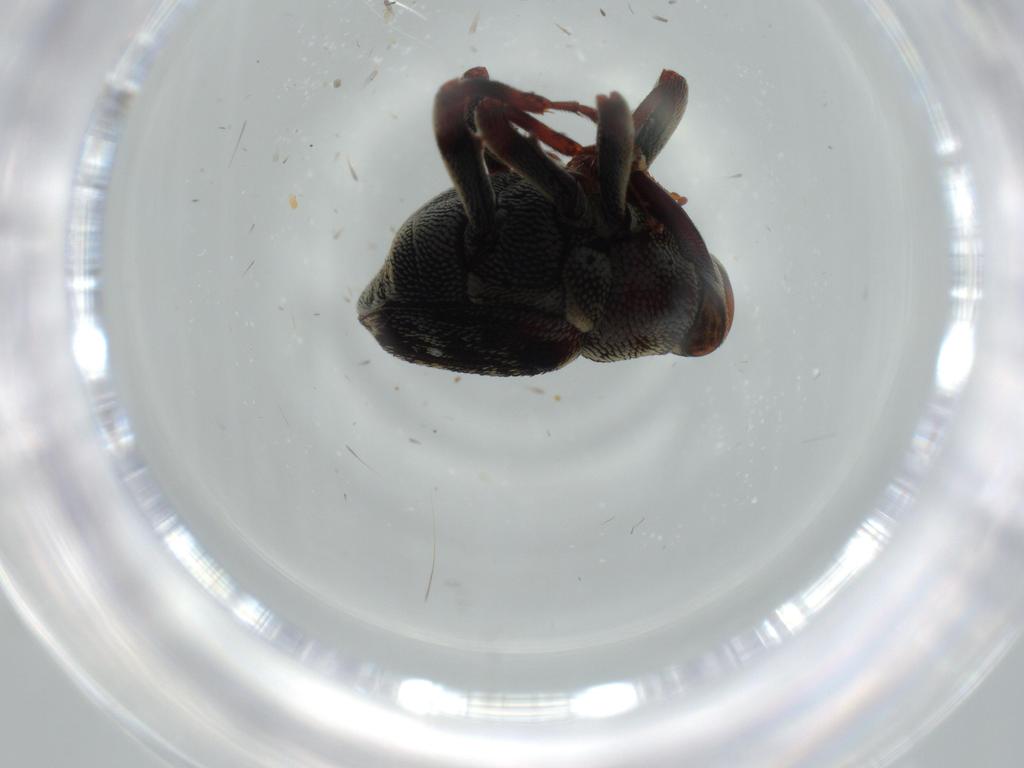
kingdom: Animalia
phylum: Arthropoda
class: Insecta
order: Coleoptera
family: Curculionidae
